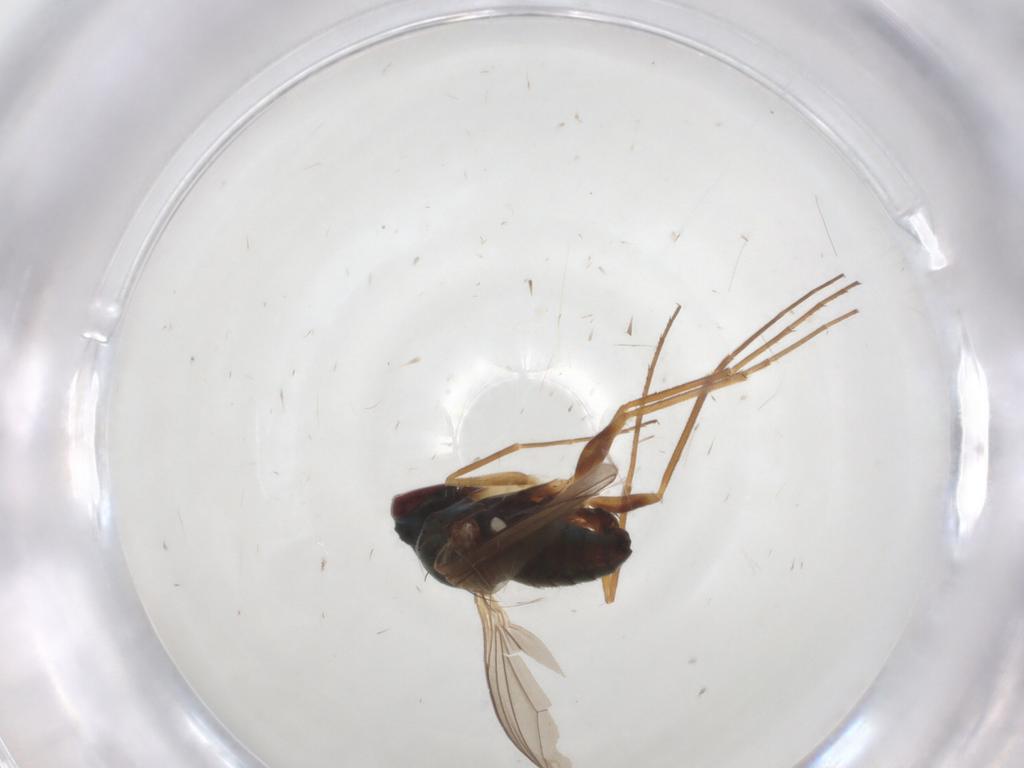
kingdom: Animalia
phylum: Arthropoda
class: Insecta
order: Diptera
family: Dolichopodidae
